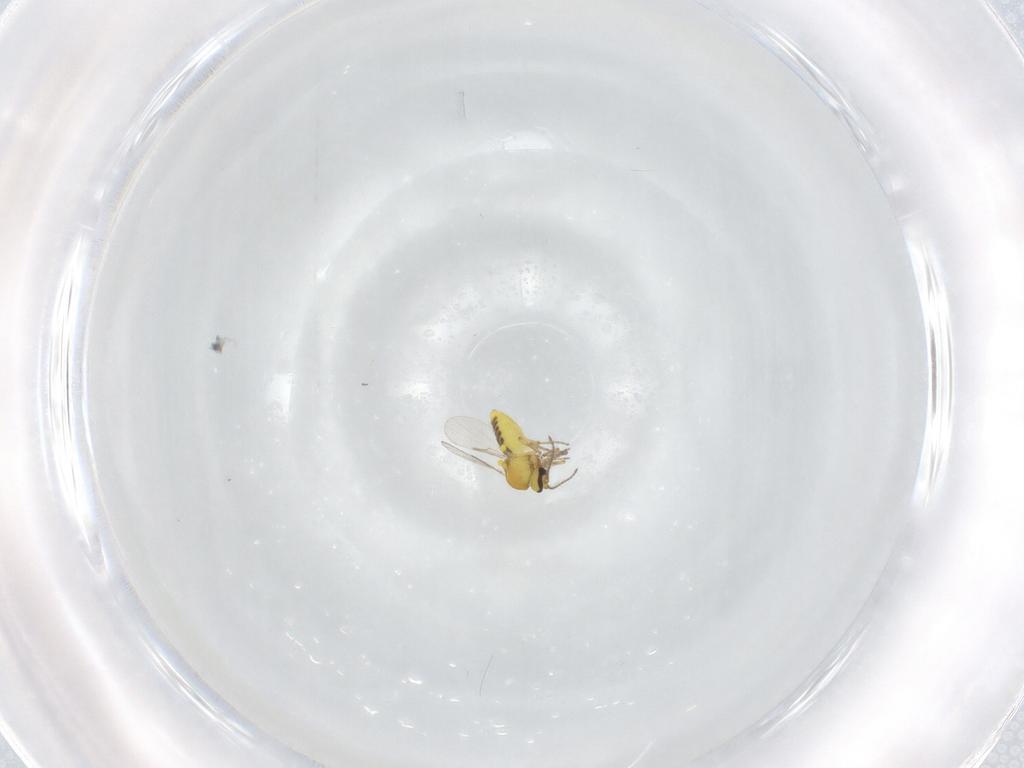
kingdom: Animalia
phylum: Arthropoda
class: Insecta
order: Diptera
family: Ceratopogonidae
